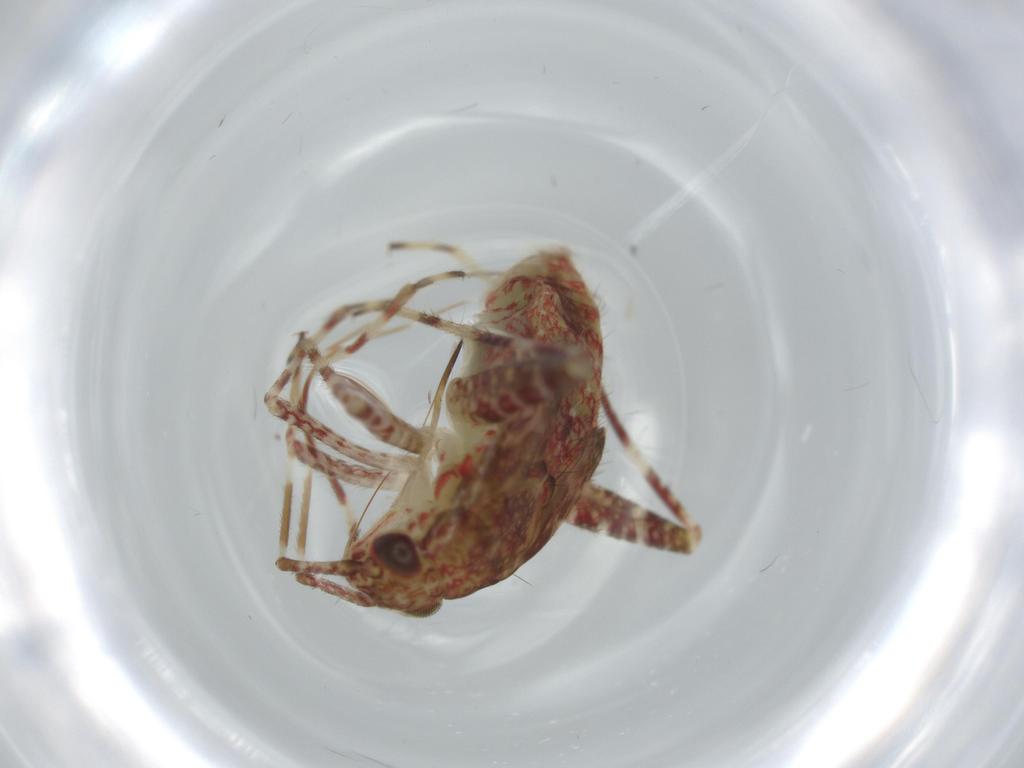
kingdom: Animalia
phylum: Arthropoda
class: Insecta
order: Hemiptera
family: Miridae
